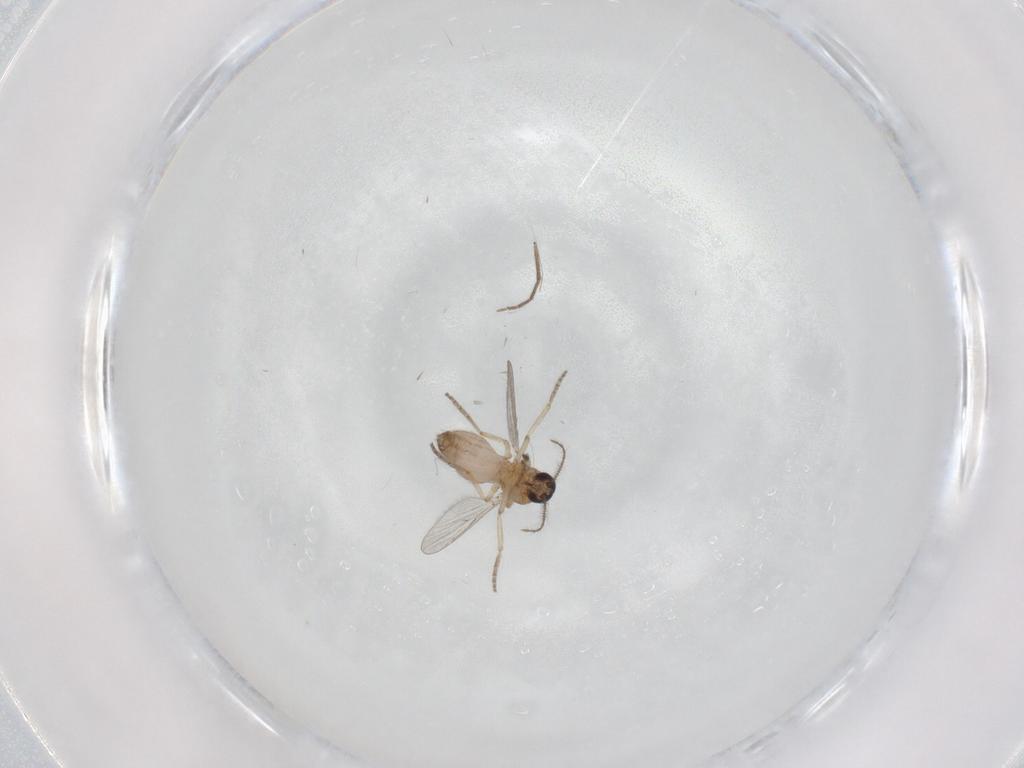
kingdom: Animalia
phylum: Arthropoda
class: Insecta
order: Diptera
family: Chironomidae
